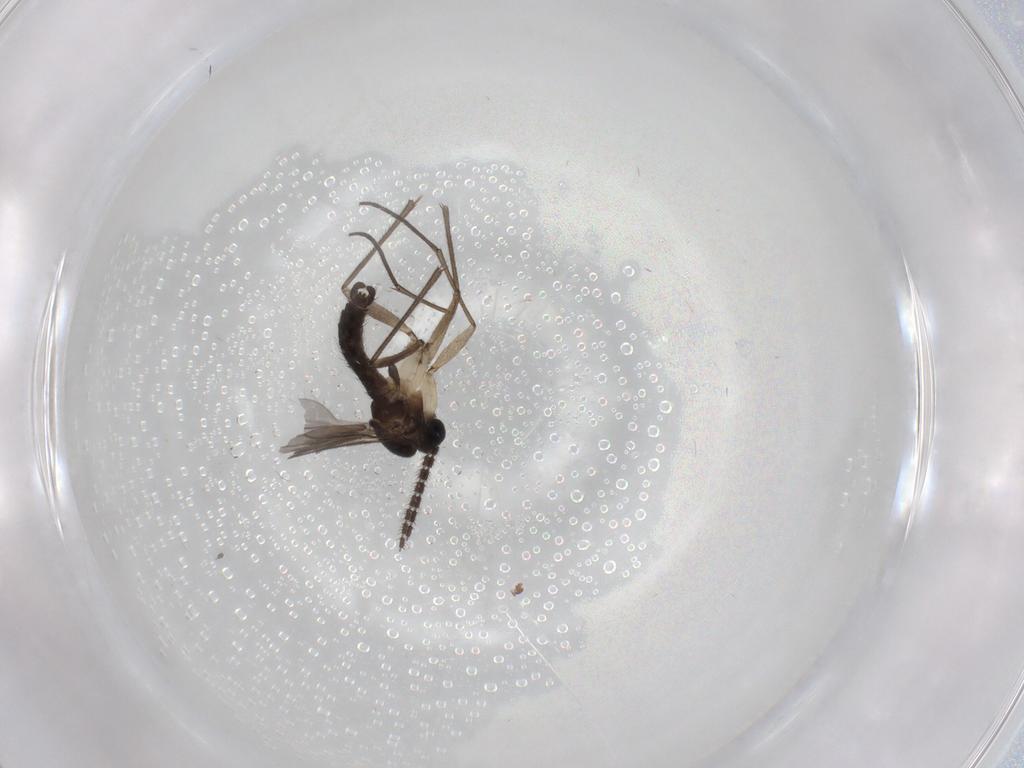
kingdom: Animalia
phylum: Arthropoda
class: Insecta
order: Diptera
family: Sciaridae
